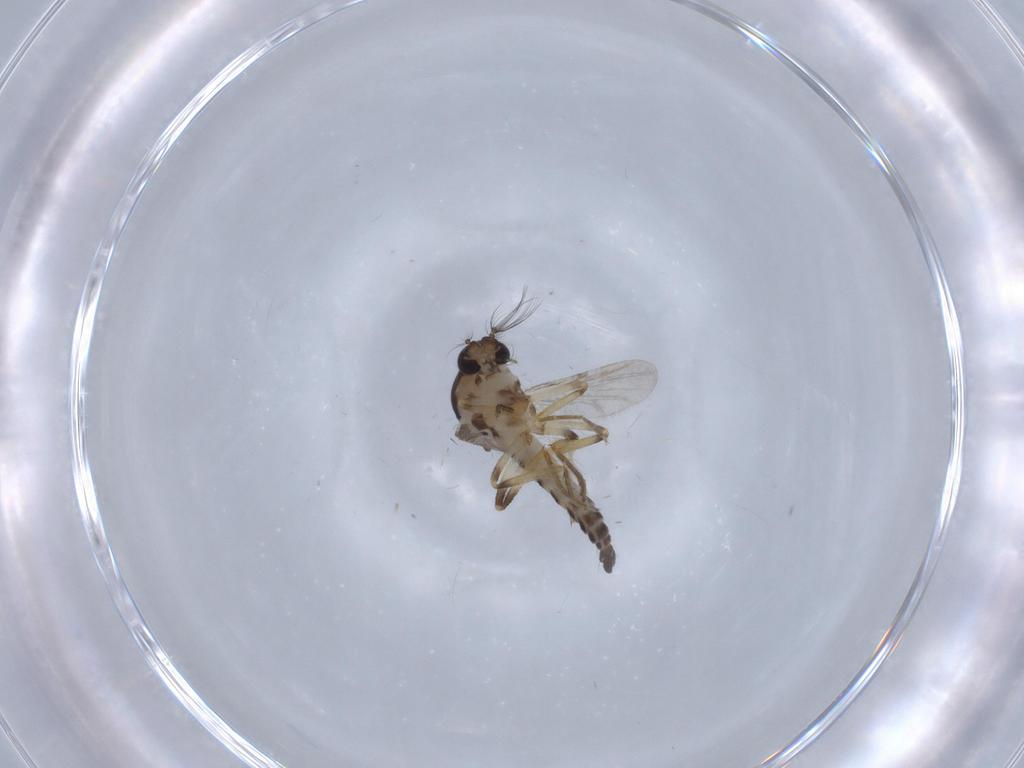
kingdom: Animalia
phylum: Arthropoda
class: Insecta
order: Diptera
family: Ceratopogonidae
